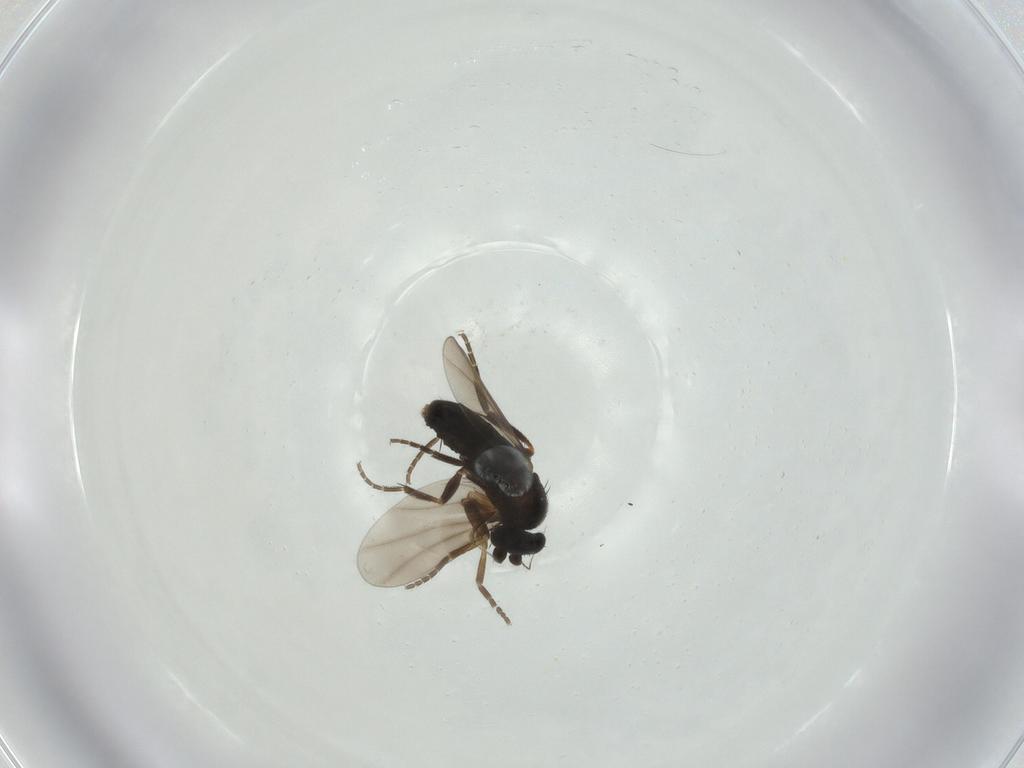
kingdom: Animalia
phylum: Arthropoda
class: Insecta
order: Diptera
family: Phoridae
